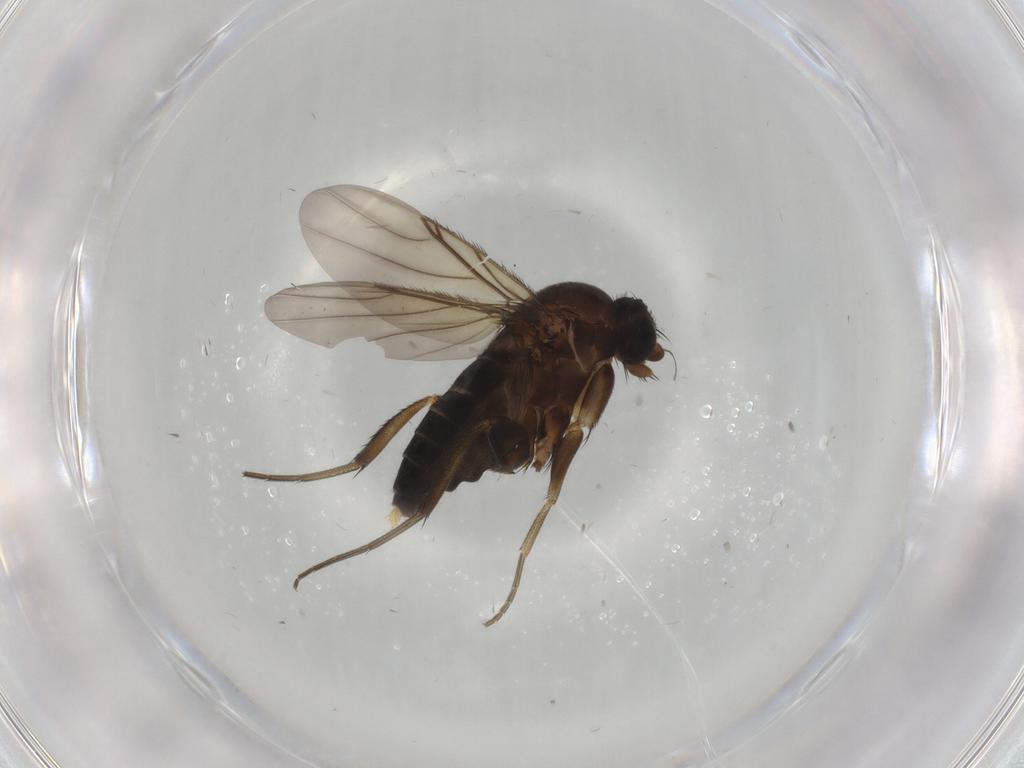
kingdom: Animalia
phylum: Arthropoda
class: Insecta
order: Diptera
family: Phoridae
